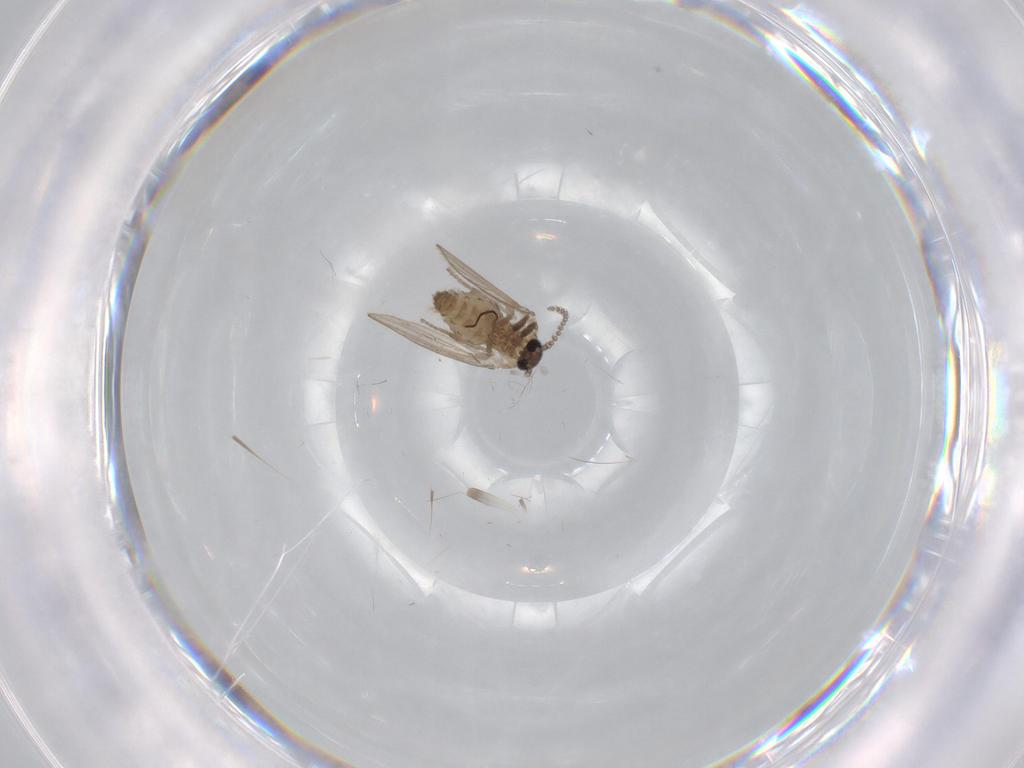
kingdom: Animalia
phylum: Arthropoda
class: Insecta
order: Diptera
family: Psychodidae
